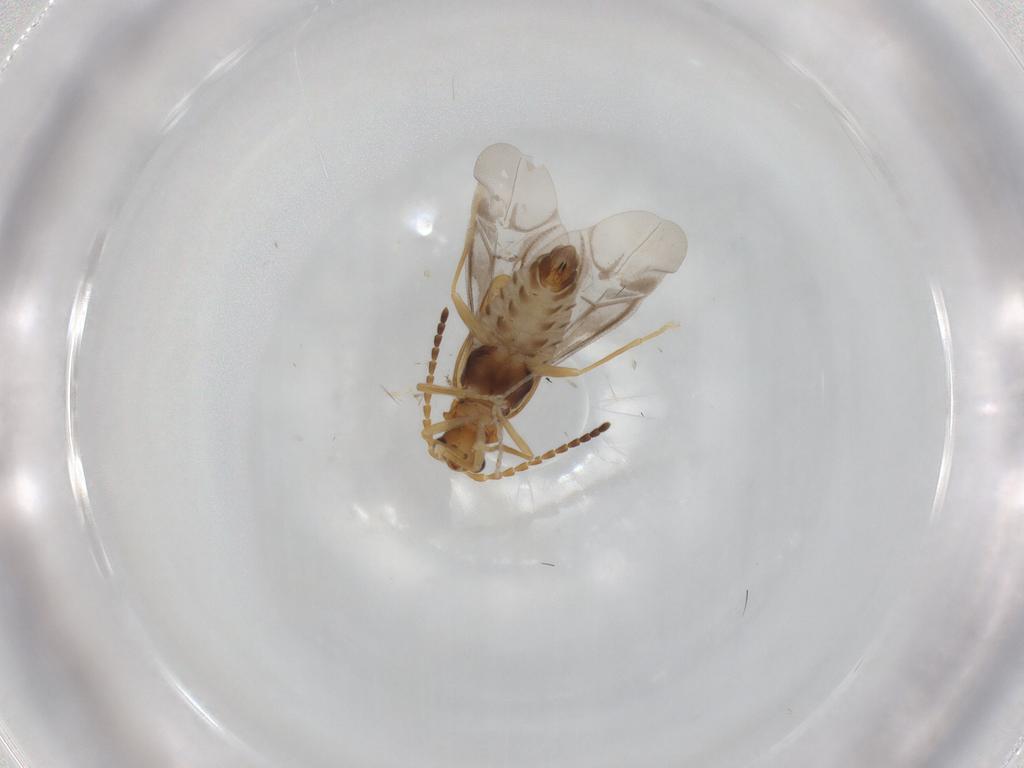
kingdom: Animalia
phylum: Arthropoda
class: Insecta
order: Coleoptera
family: Cantharidae
